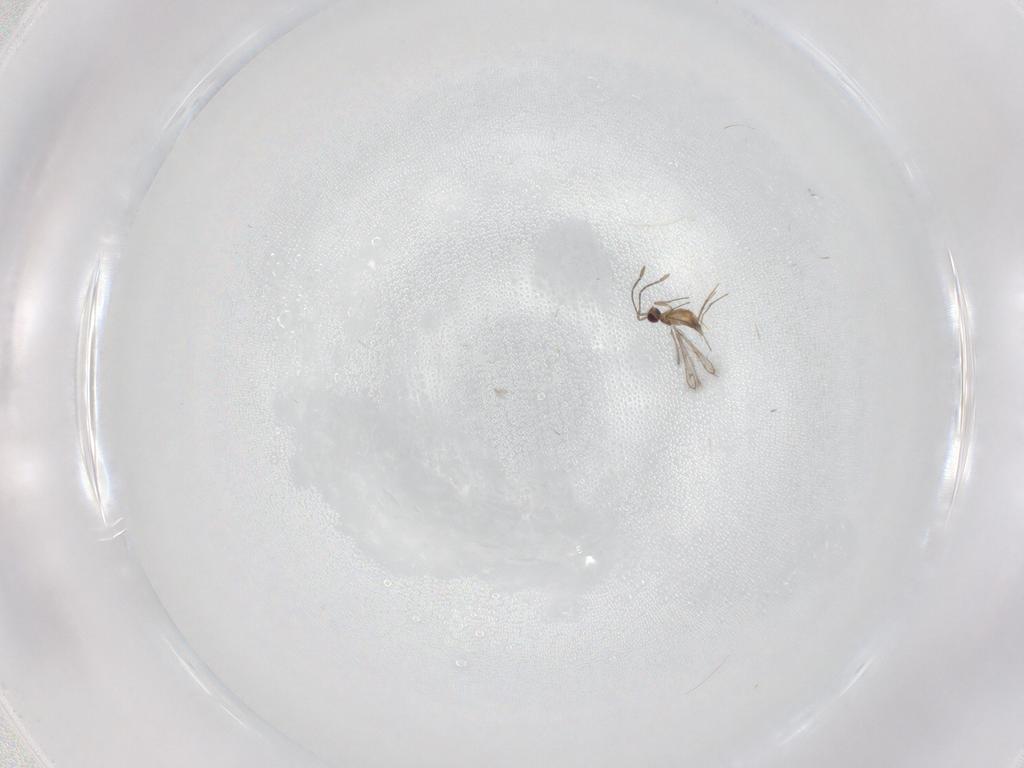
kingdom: Animalia
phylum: Arthropoda
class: Insecta
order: Hymenoptera
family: Mymaridae
